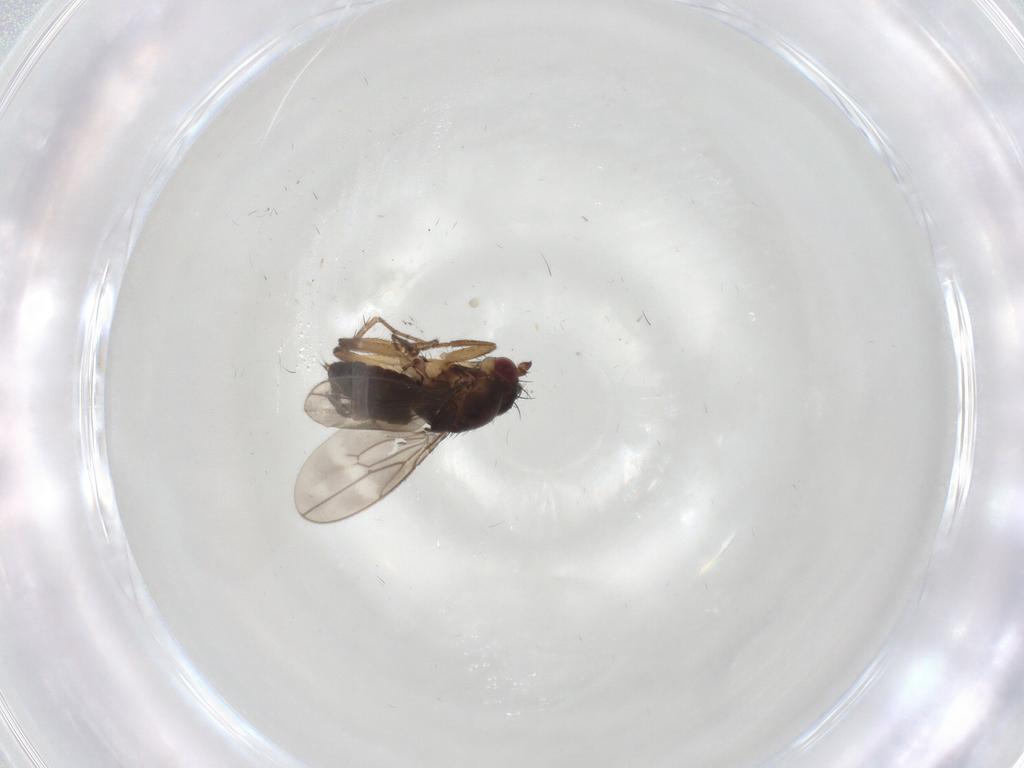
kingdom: Animalia
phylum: Arthropoda
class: Insecta
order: Diptera
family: Sphaeroceridae
